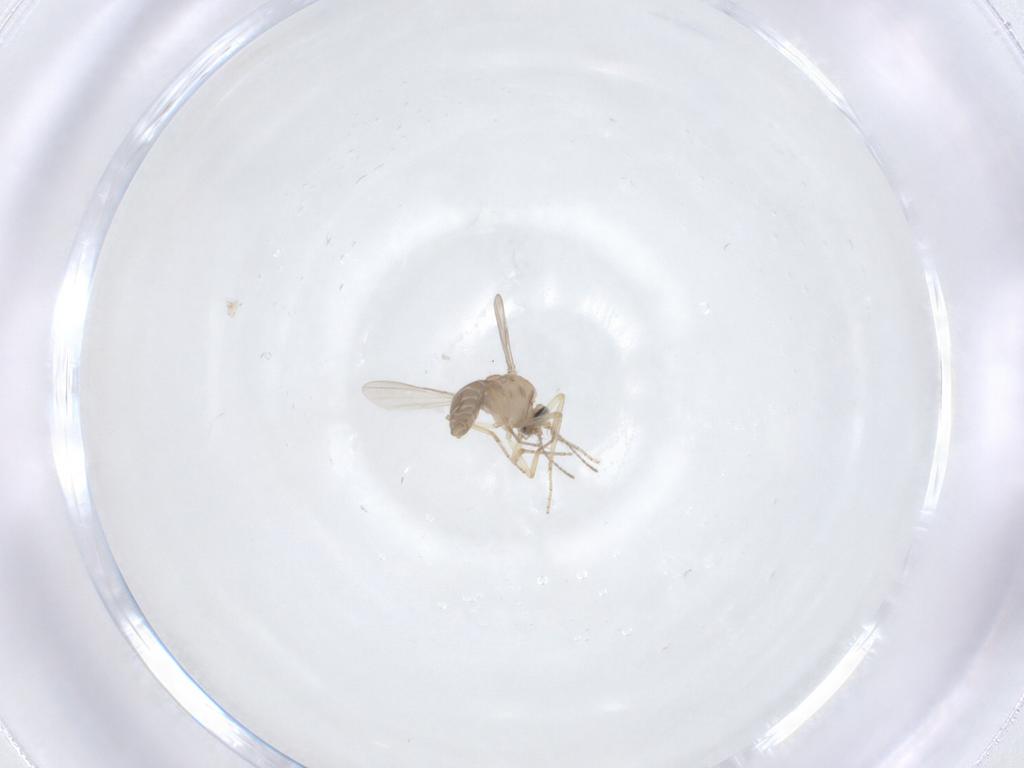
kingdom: Animalia
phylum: Arthropoda
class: Insecta
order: Diptera
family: Ceratopogonidae
